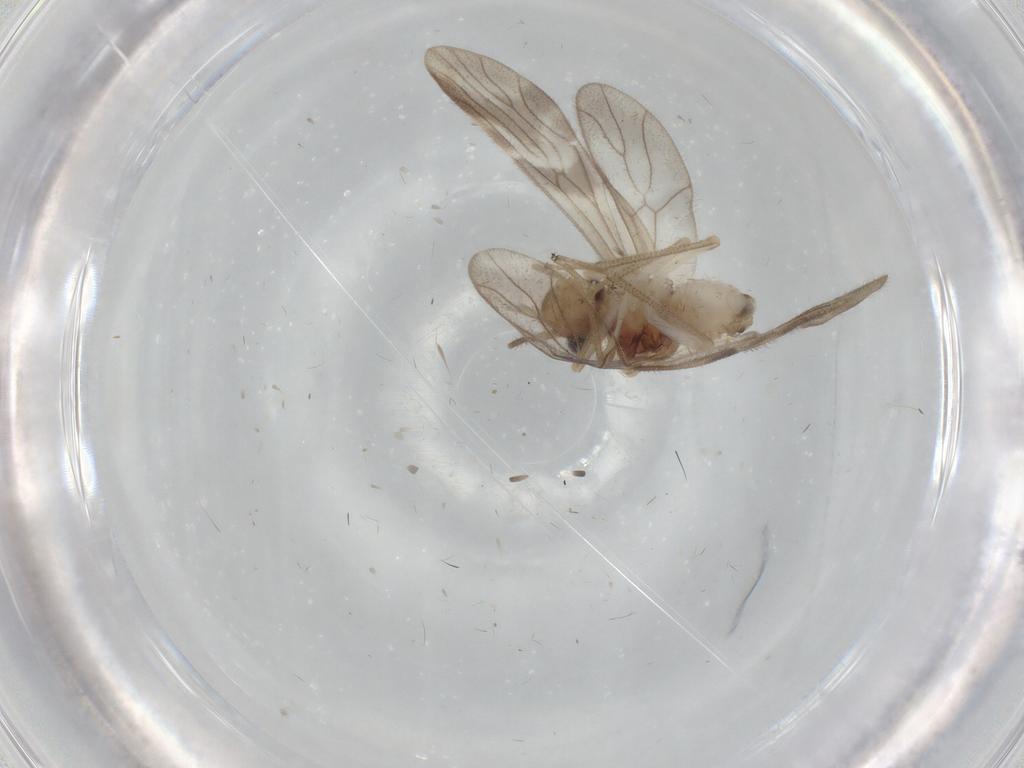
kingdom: Animalia
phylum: Arthropoda
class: Insecta
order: Psocodea
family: Amphipsocidae
